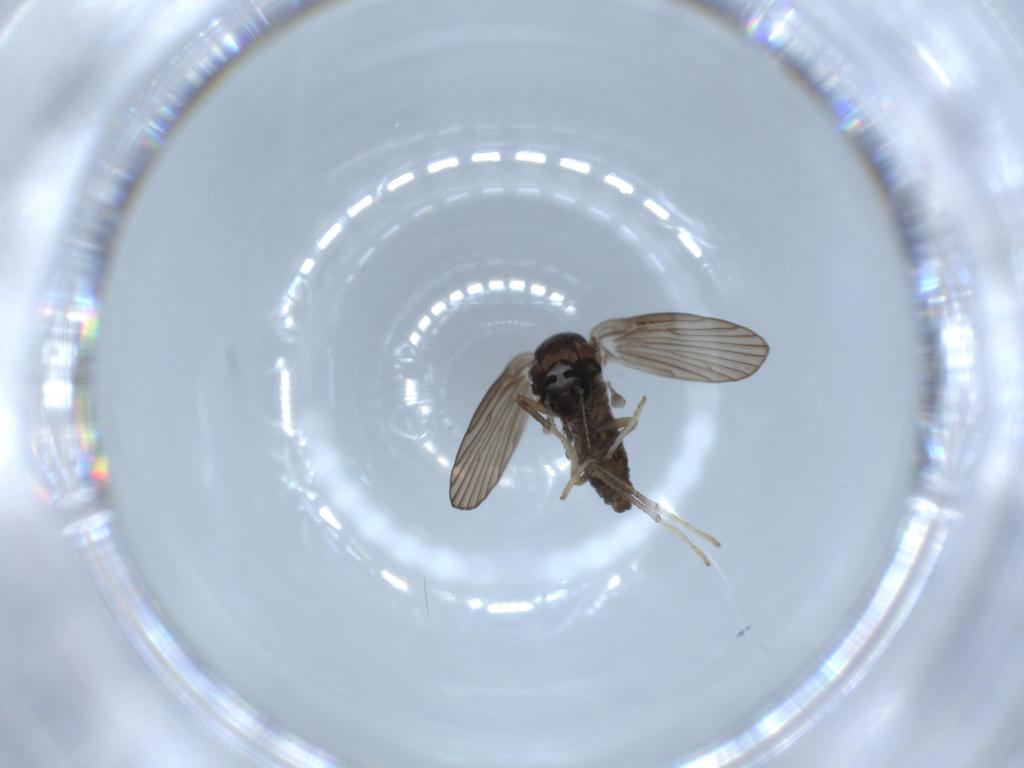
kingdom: Animalia
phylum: Arthropoda
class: Insecta
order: Diptera
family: Psychodidae
